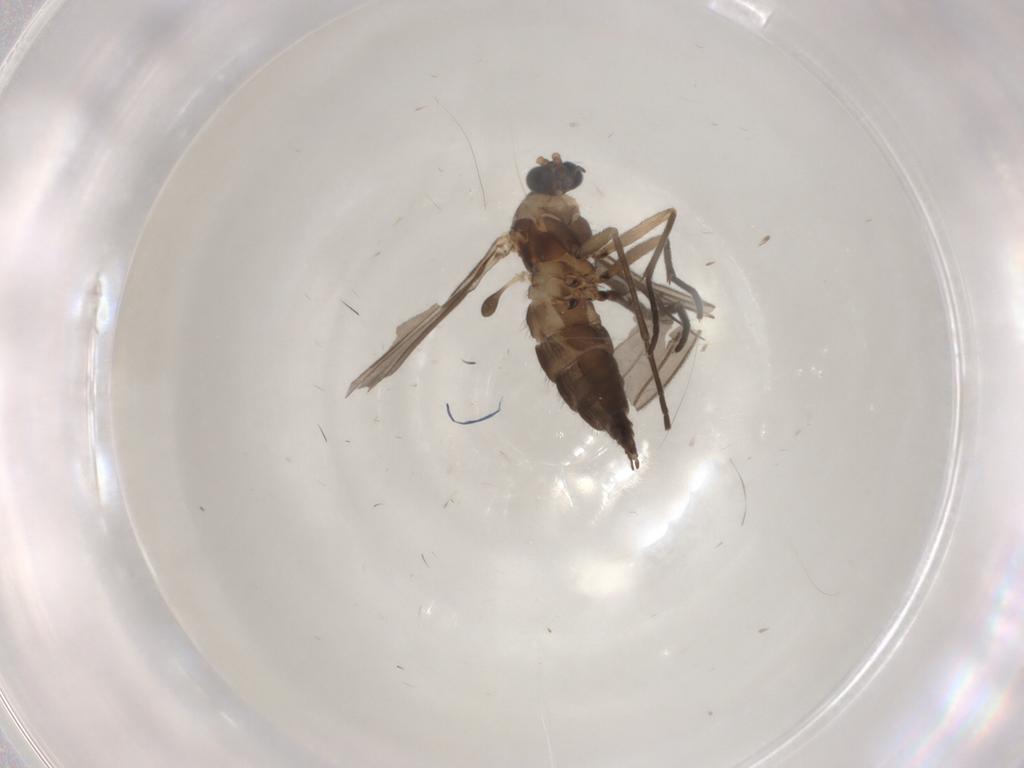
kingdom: Animalia
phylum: Arthropoda
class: Insecta
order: Diptera
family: Sciaridae
